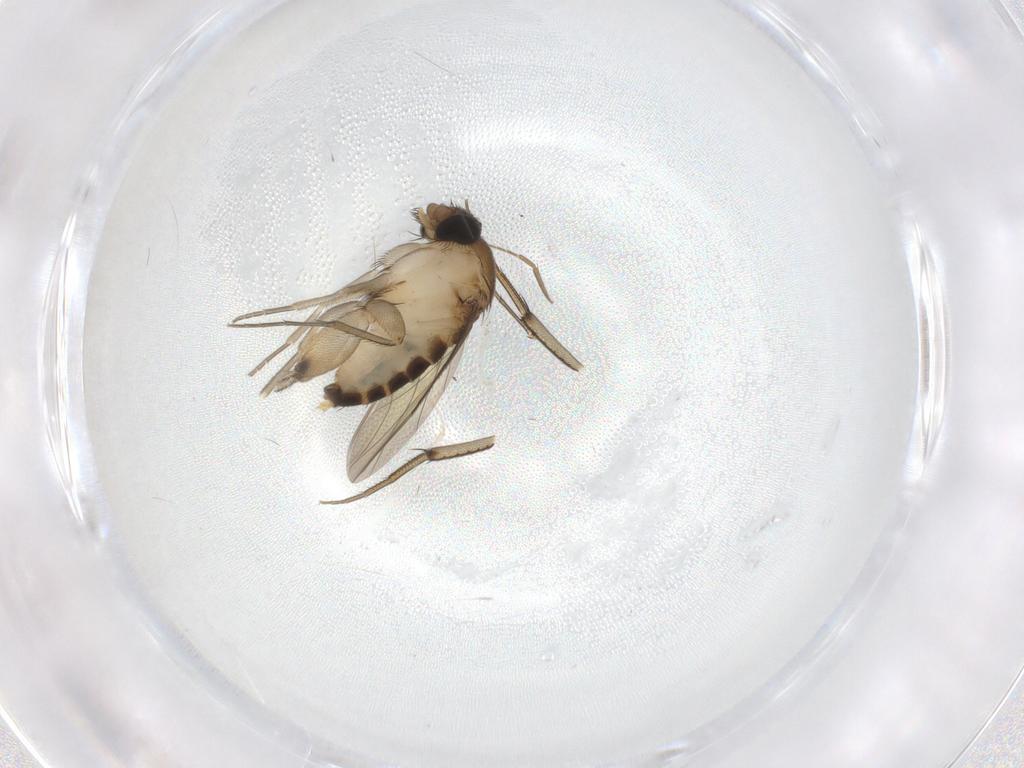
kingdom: Animalia
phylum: Arthropoda
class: Insecta
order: Diptera
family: Phoridae
